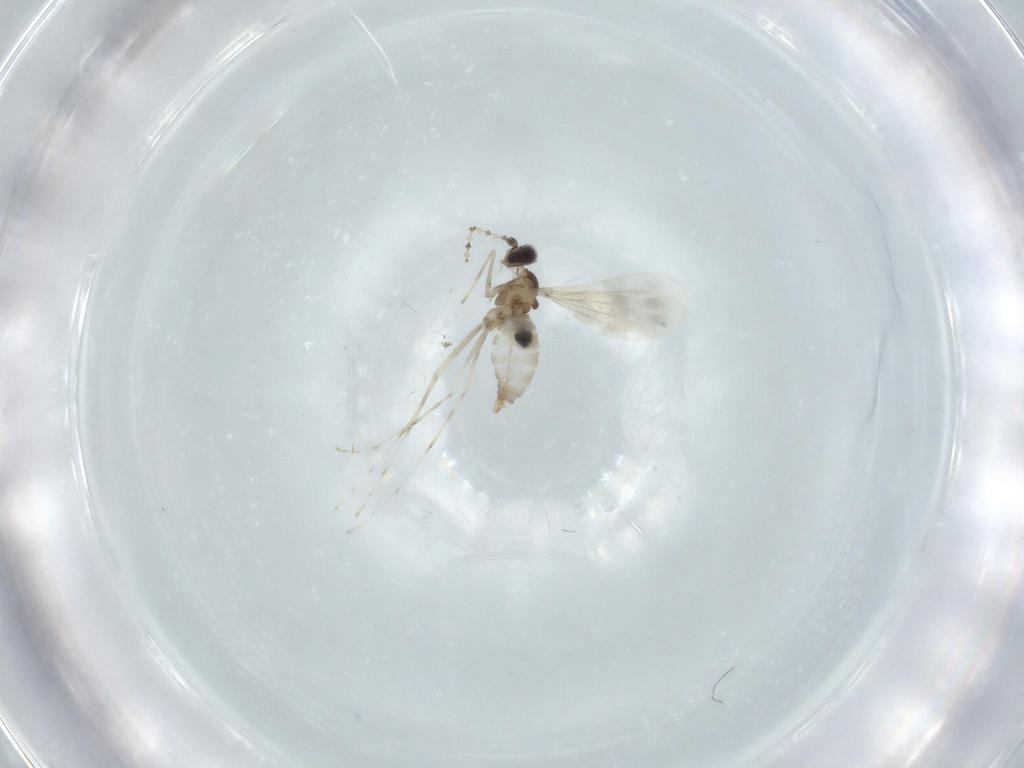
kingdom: Animalia
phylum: Arthropoda
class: Insecta
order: Diptera
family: Cecidomyiidae
